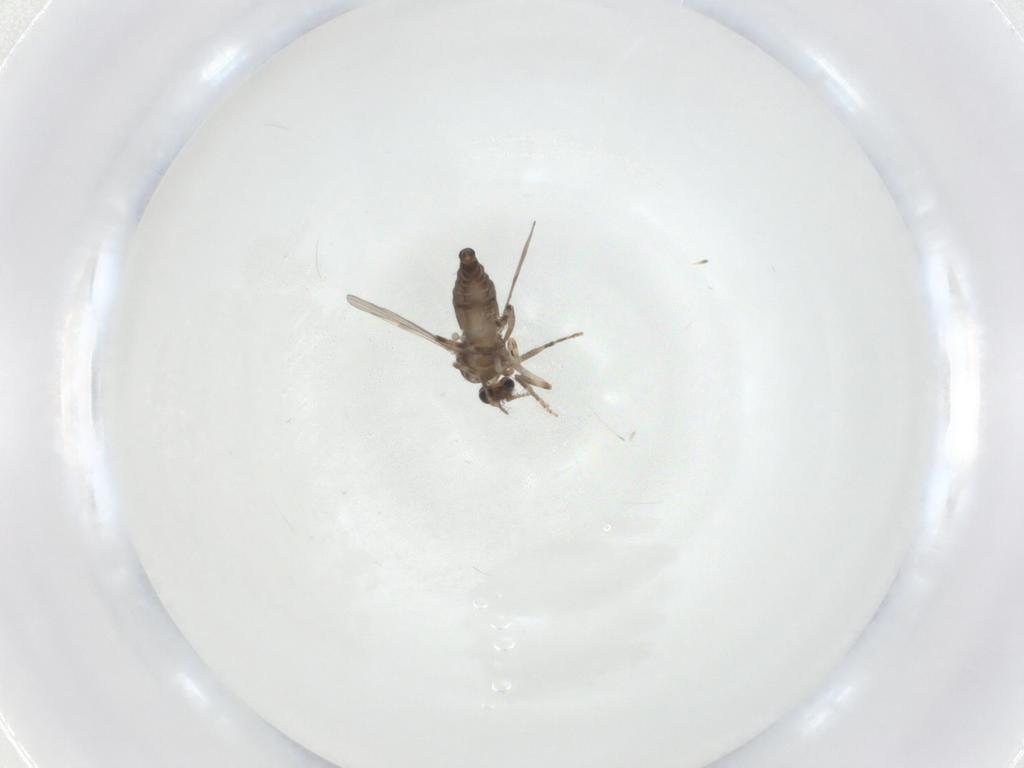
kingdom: Animalia
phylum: Arthropoda
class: Insecta
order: Diptera
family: Ceratopogonidae
